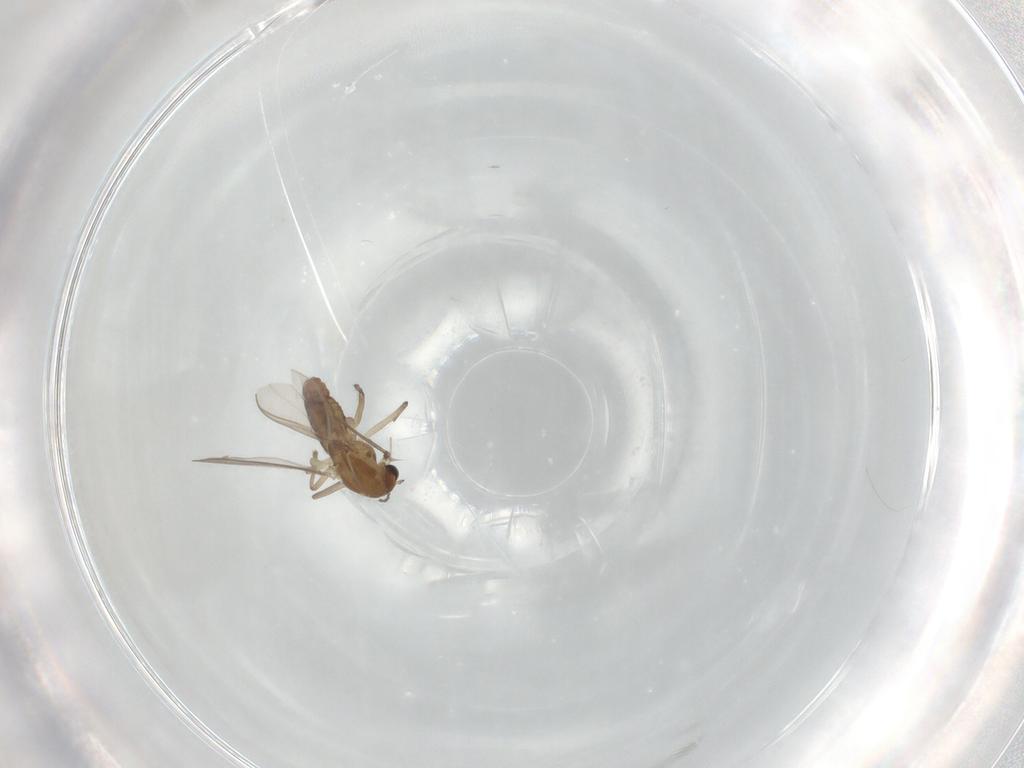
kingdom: Animalia
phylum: Arthropoda
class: Insecta
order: Diptera
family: Chironomidae
